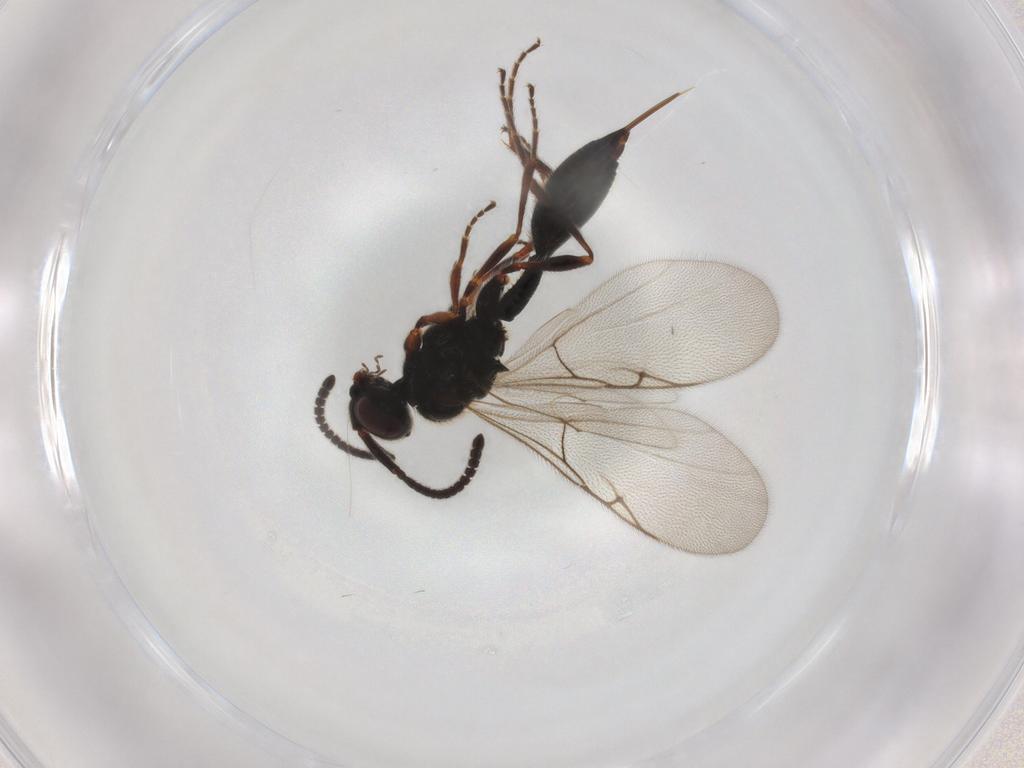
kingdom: Animalia
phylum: Arthropoda
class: Insecta
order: Hymenoptera
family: Diapriidae
